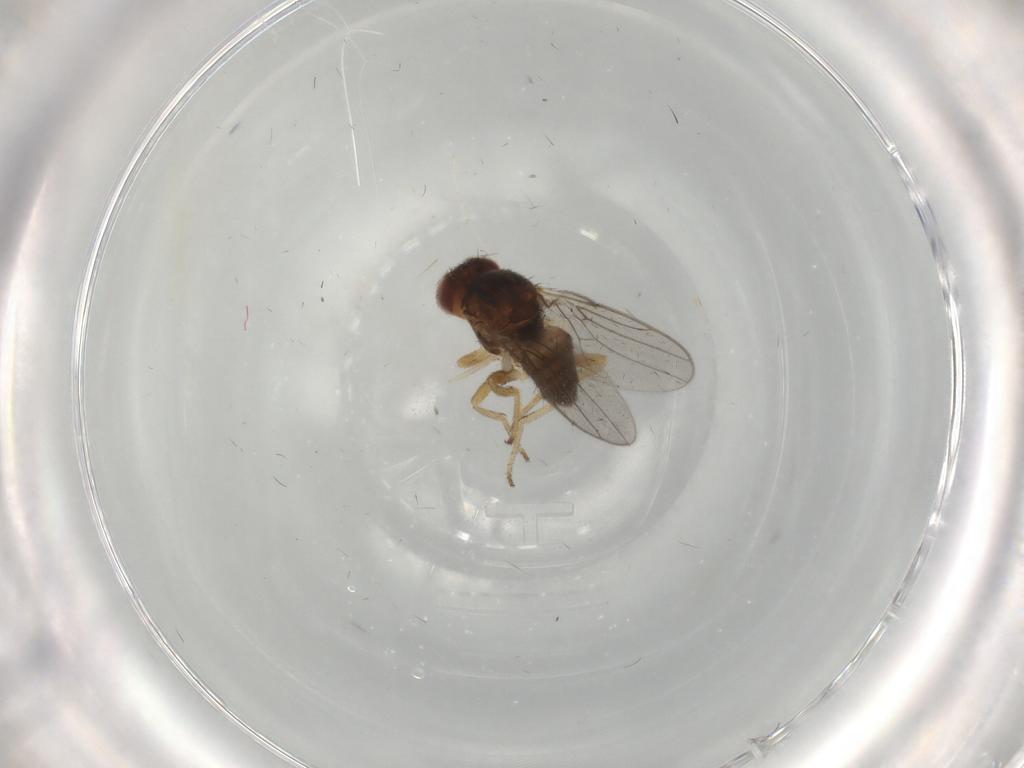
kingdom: Animalia
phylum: Arthropoda
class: Insecta
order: Diptera
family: Chloropidae
